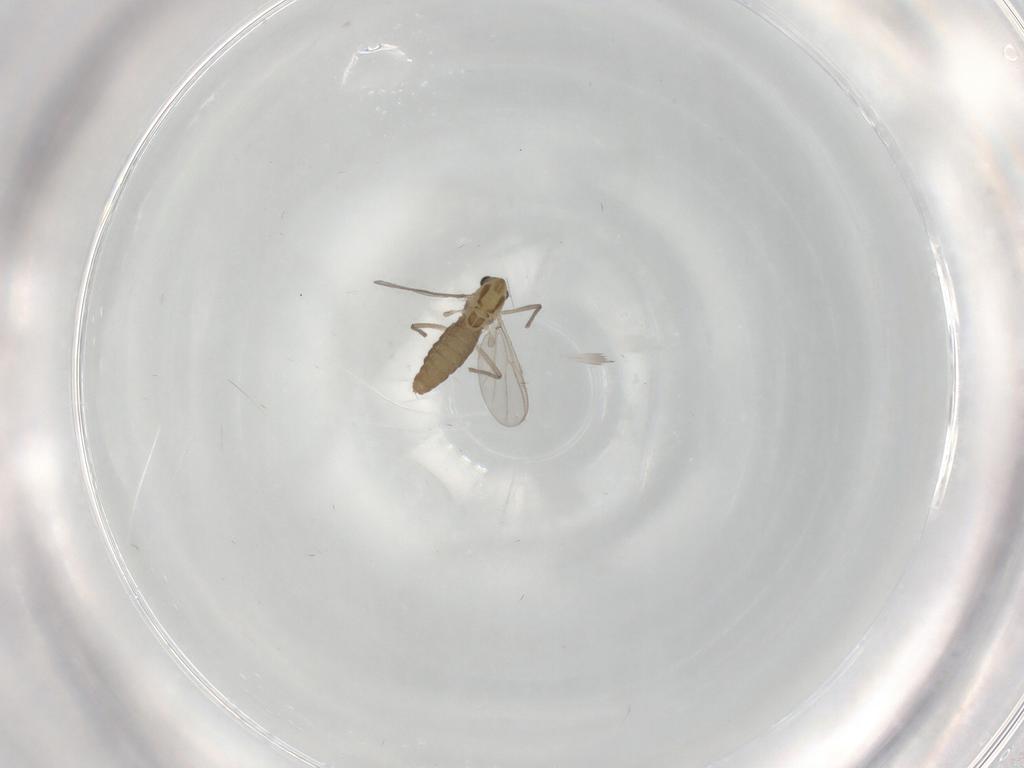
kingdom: Animalia
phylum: Arthropoda
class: Insecta
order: Diptera
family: Chironomidae
